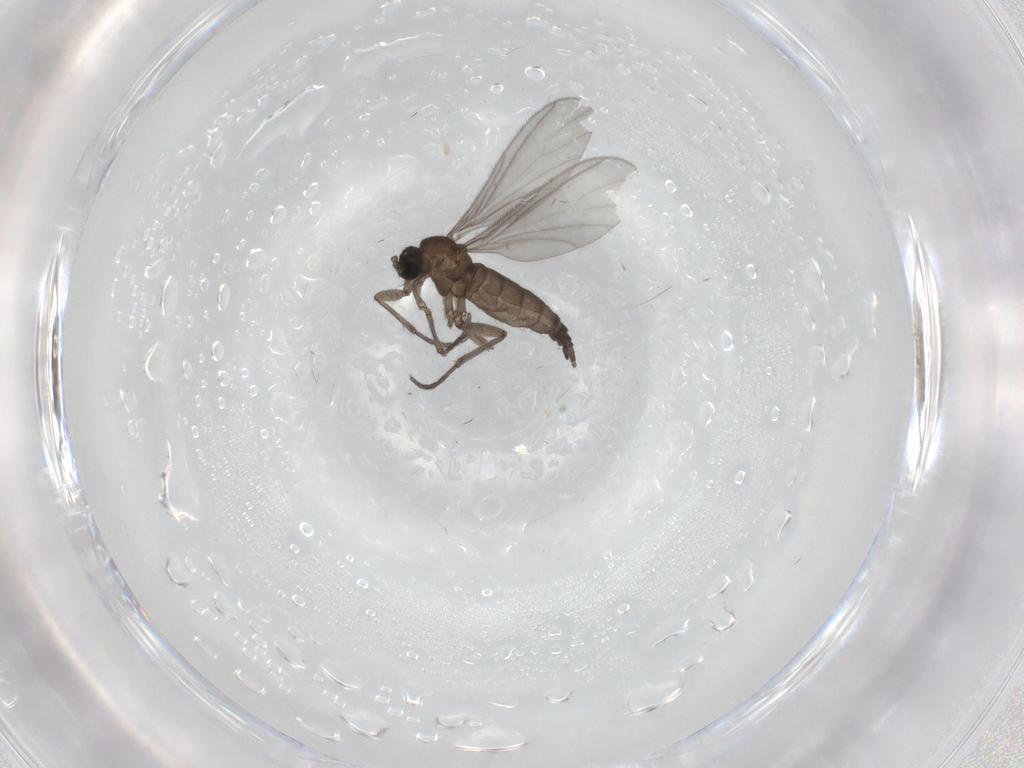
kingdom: Animalia
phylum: Arthropoda
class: Insecta
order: Diptera
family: Sciaridae
